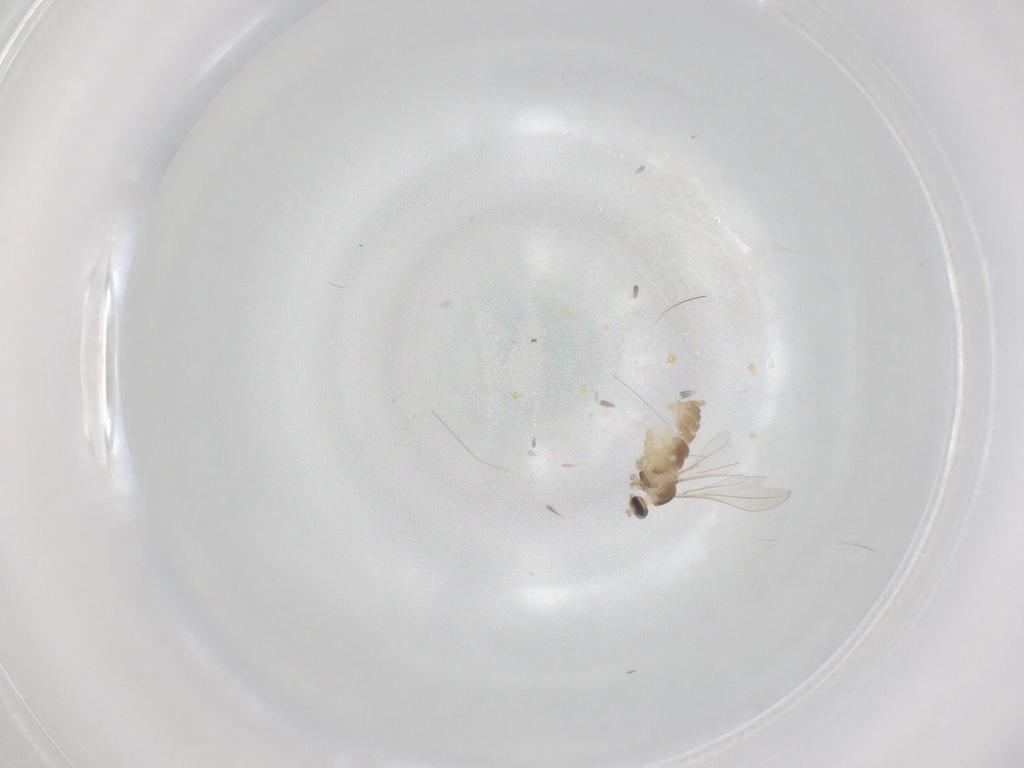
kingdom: Animalia
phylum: Arthropoda
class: Insecta
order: Diptera
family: Cecidomyiidae
